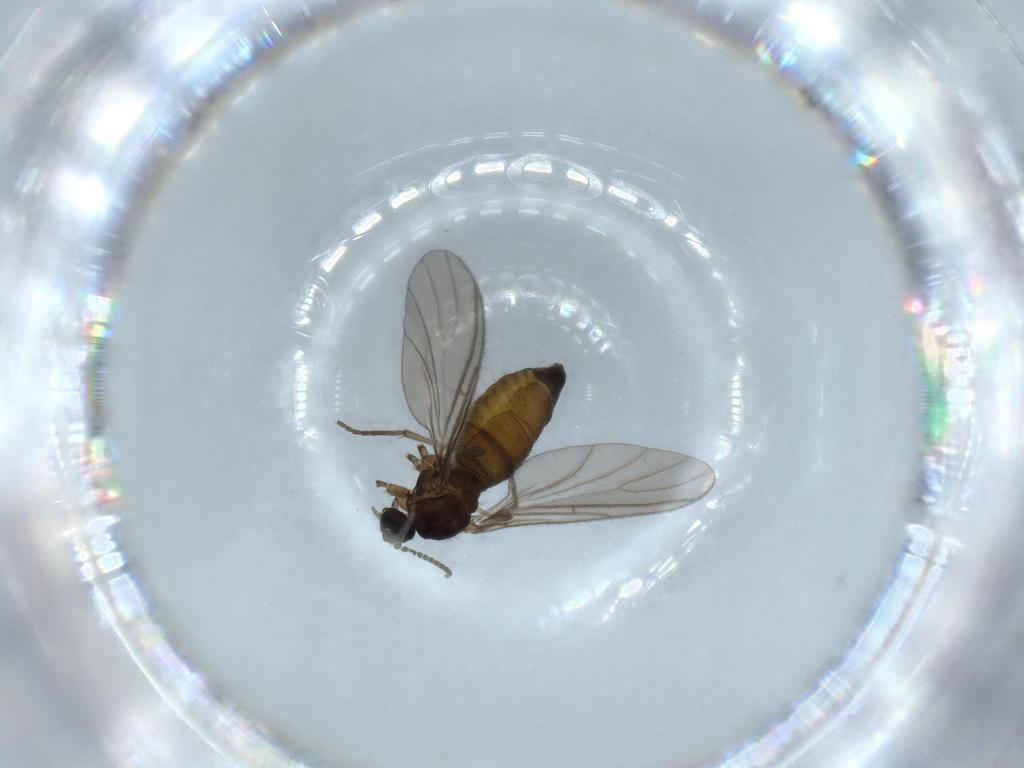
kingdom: Animalia
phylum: Arthropoda
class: Insecta
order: Diptera
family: Sciaridae
